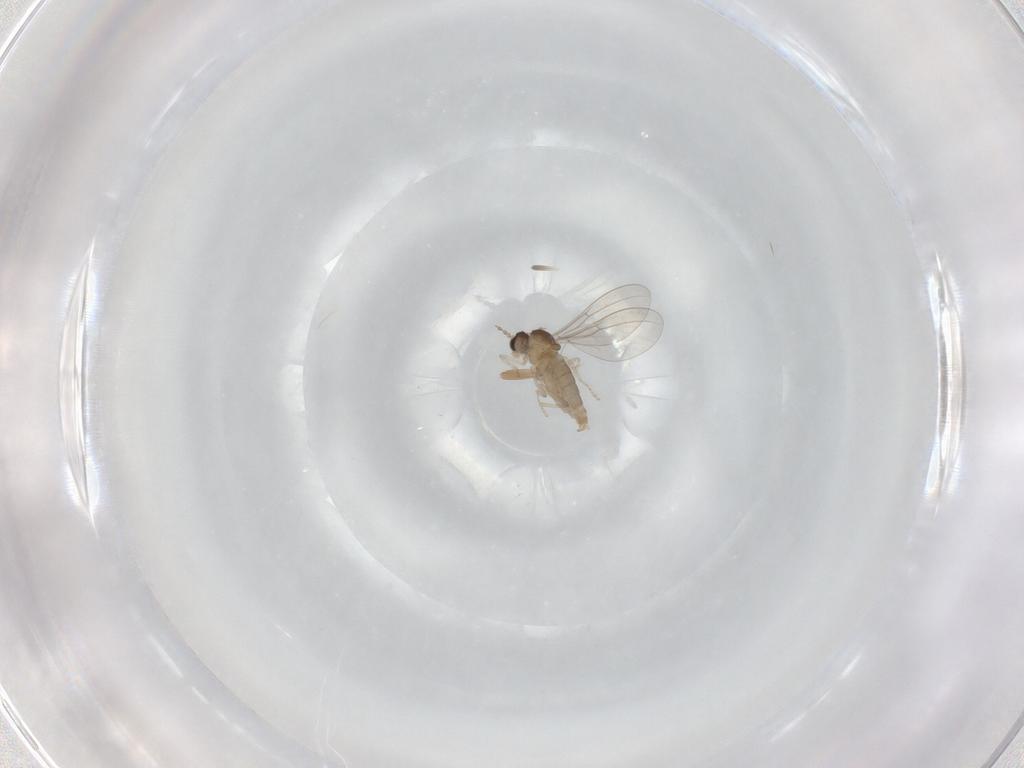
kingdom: Animalia
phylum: Arthropoda
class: Insecta
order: Diptera
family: Cecidomyiidae
